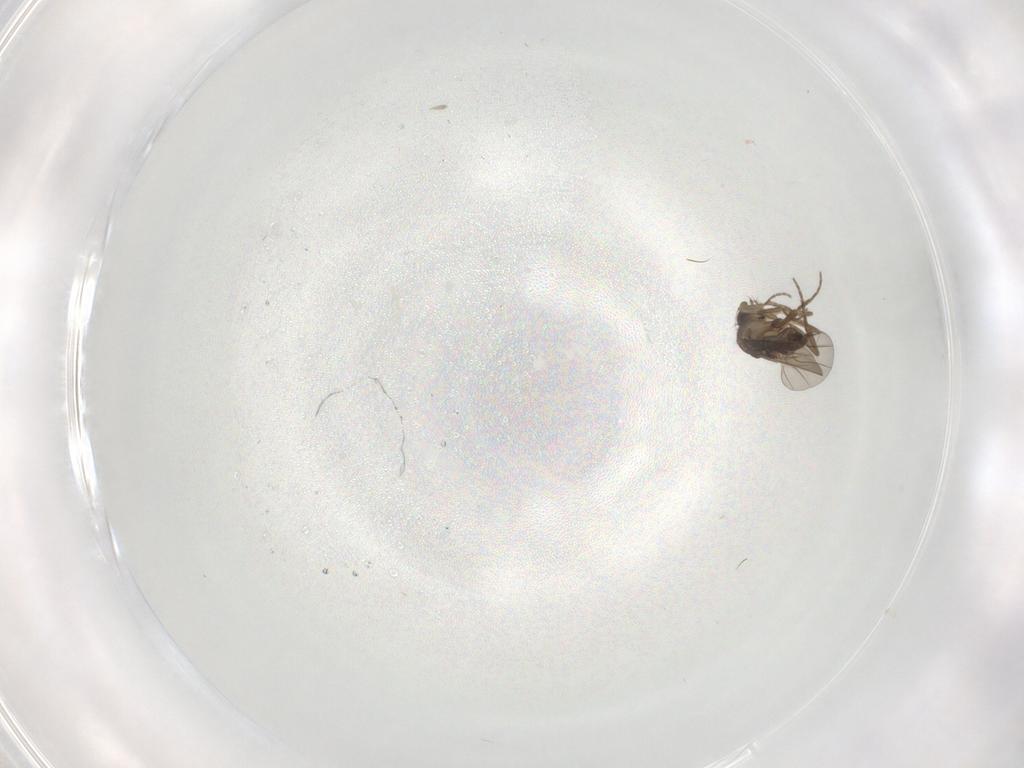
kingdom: Animalia
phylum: Arthropoda
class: Insecta
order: Diptera
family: Phoridae
